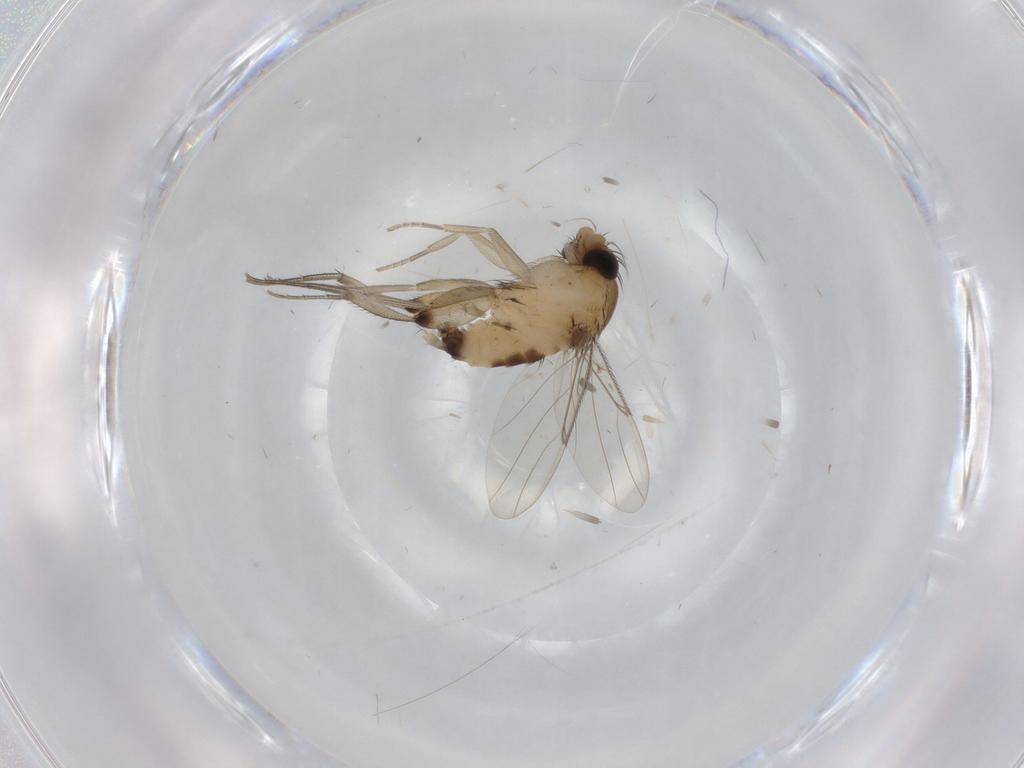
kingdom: Animalia
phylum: Arthropoda
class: Insecta
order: Diptera
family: Phoridae
